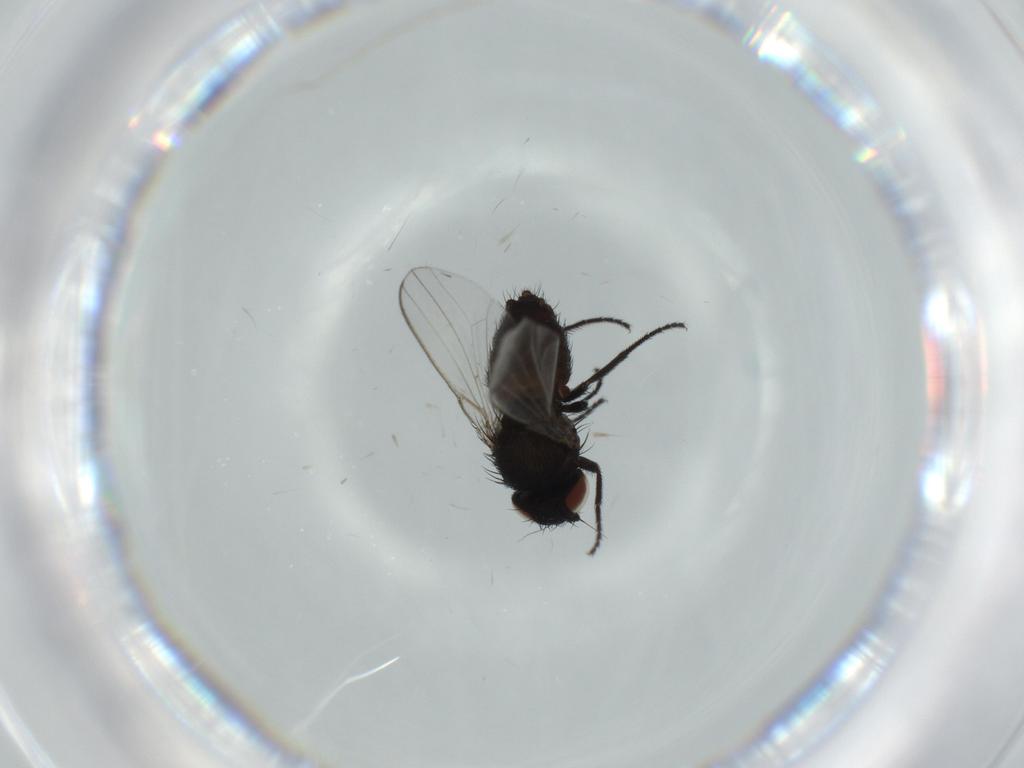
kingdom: Animalia
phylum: Arthropoda
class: Insecta
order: Diptera
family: Milichiidae
